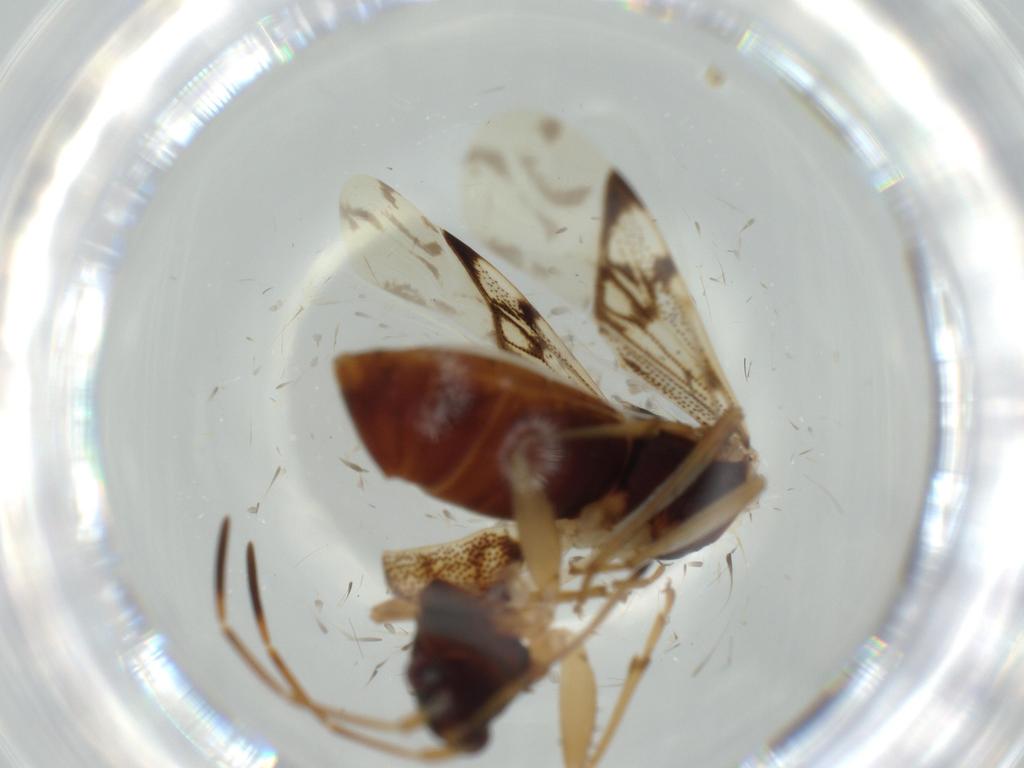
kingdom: Animalia
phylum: Arthropoda
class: Insecta
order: Hemiptera
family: Rhyparochromidae
